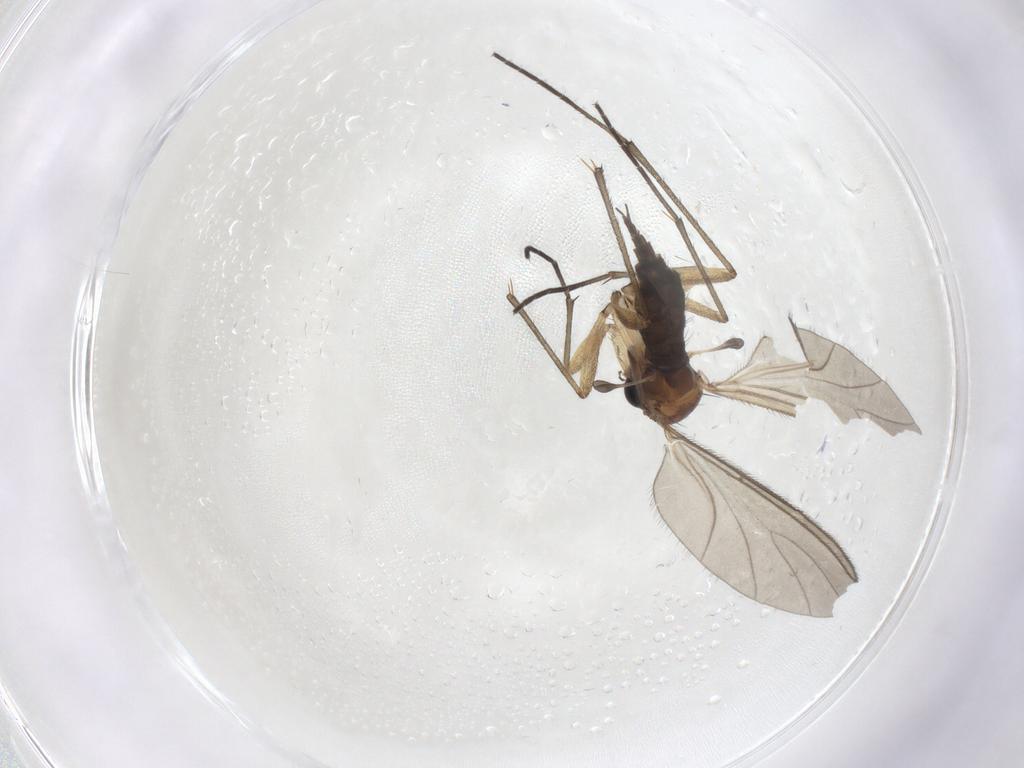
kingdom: Animalia
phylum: Arthropoda
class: Insecta
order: Diptera
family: Sciaridae
